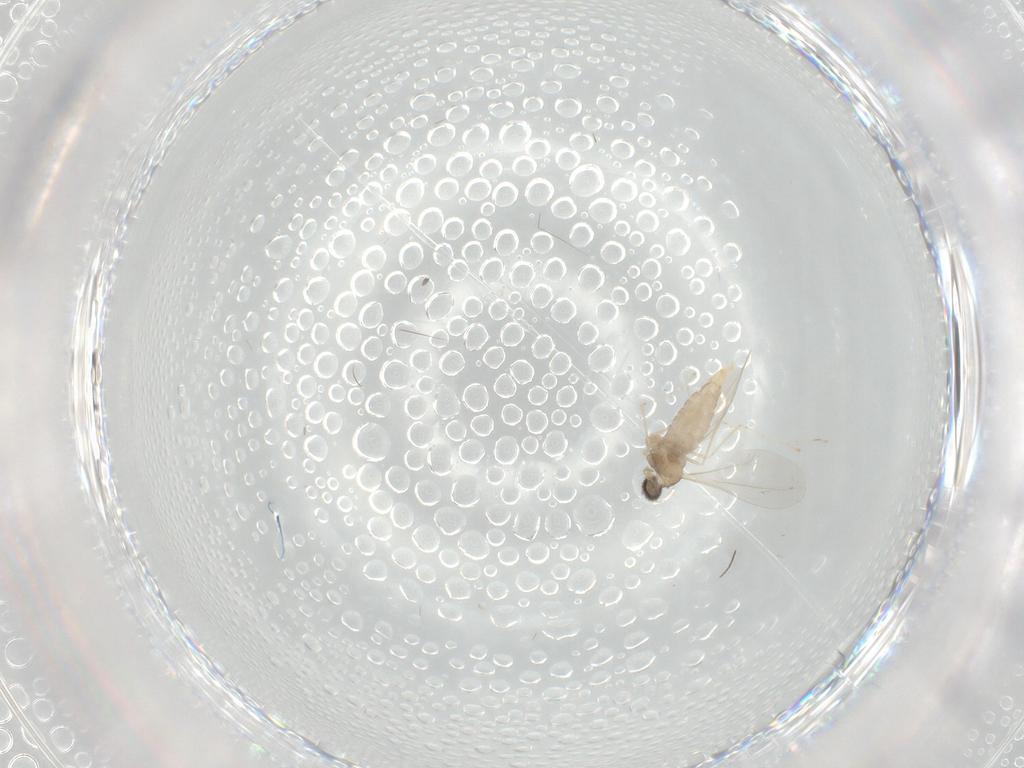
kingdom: Animalia
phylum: Arthropoda
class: Insecta
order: Diptera
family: Cecidomyiidae
